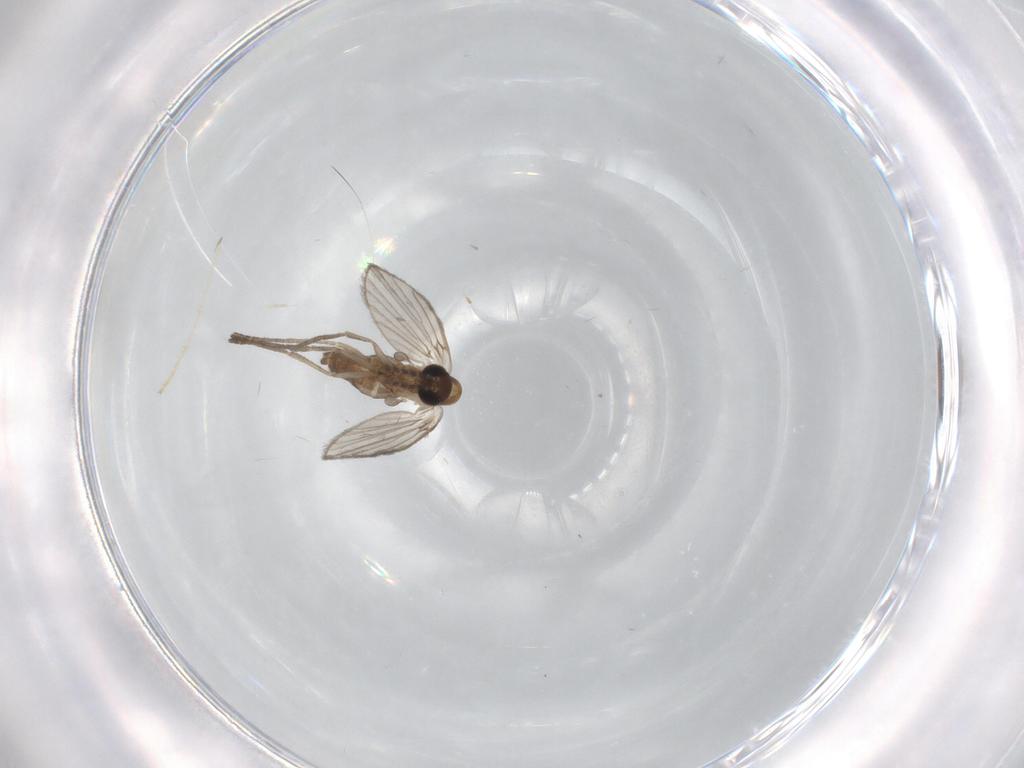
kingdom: Animalia
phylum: Arthropoda
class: Insecta
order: Diptera
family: Chironomidae
